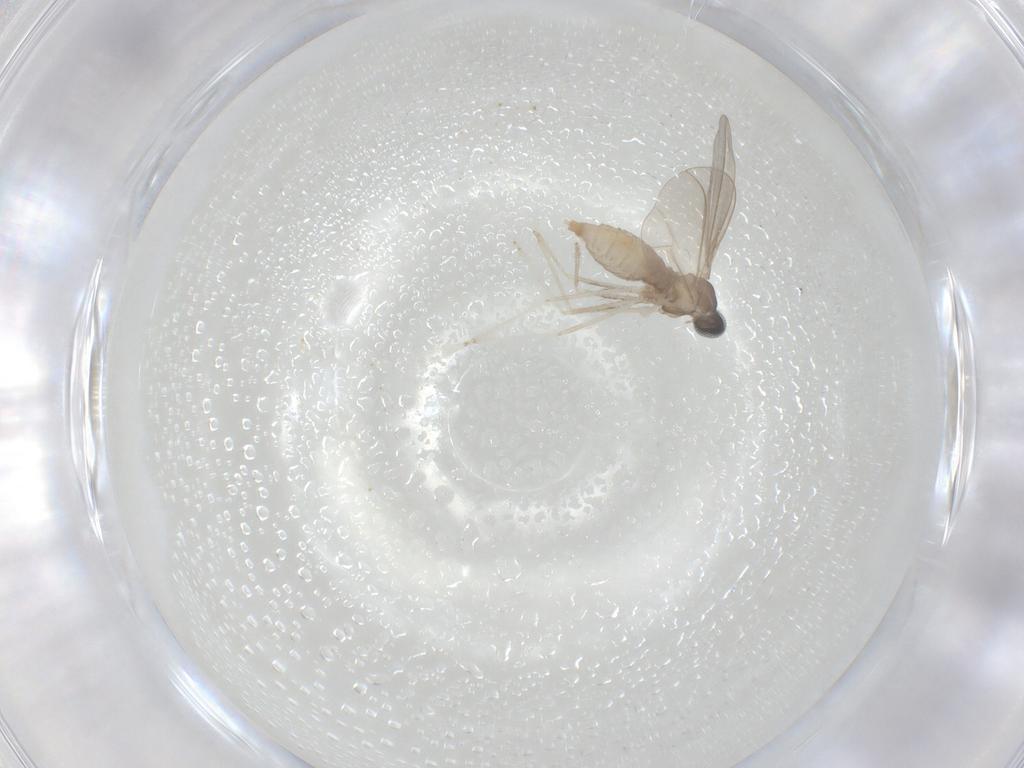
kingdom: Animalia
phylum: Arthropoda
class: Insecta
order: Diptera
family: Cecidomyiidae
